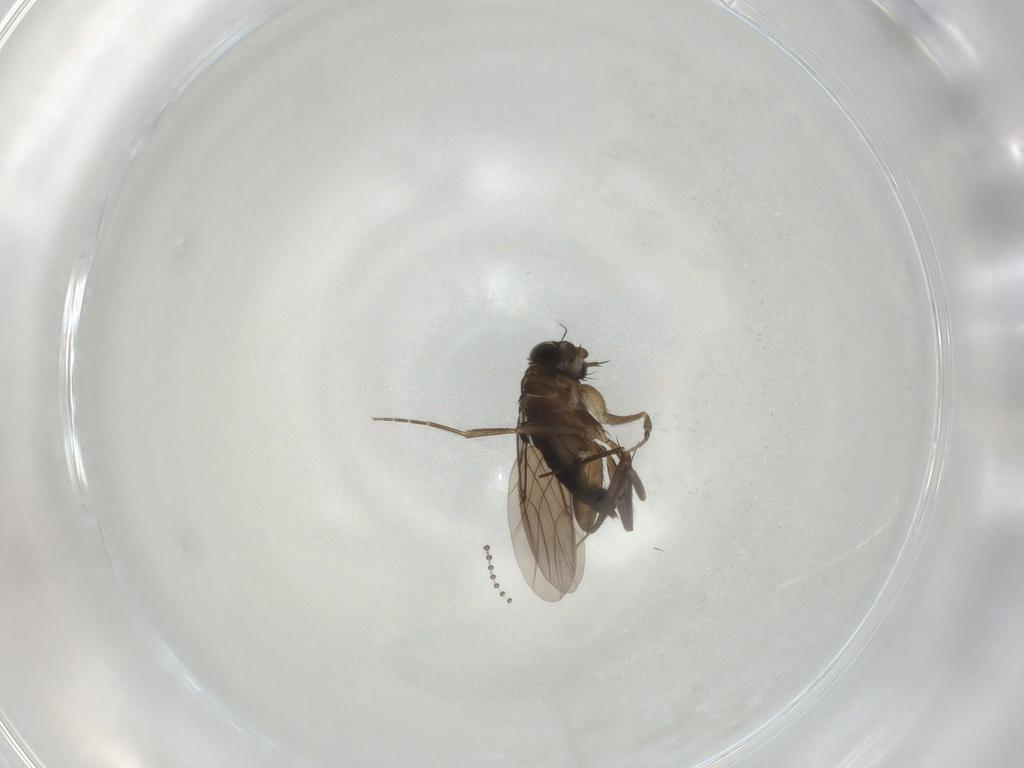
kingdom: Animalia
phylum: Arthropoda
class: Insecta
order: Diptera
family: Phoridae
